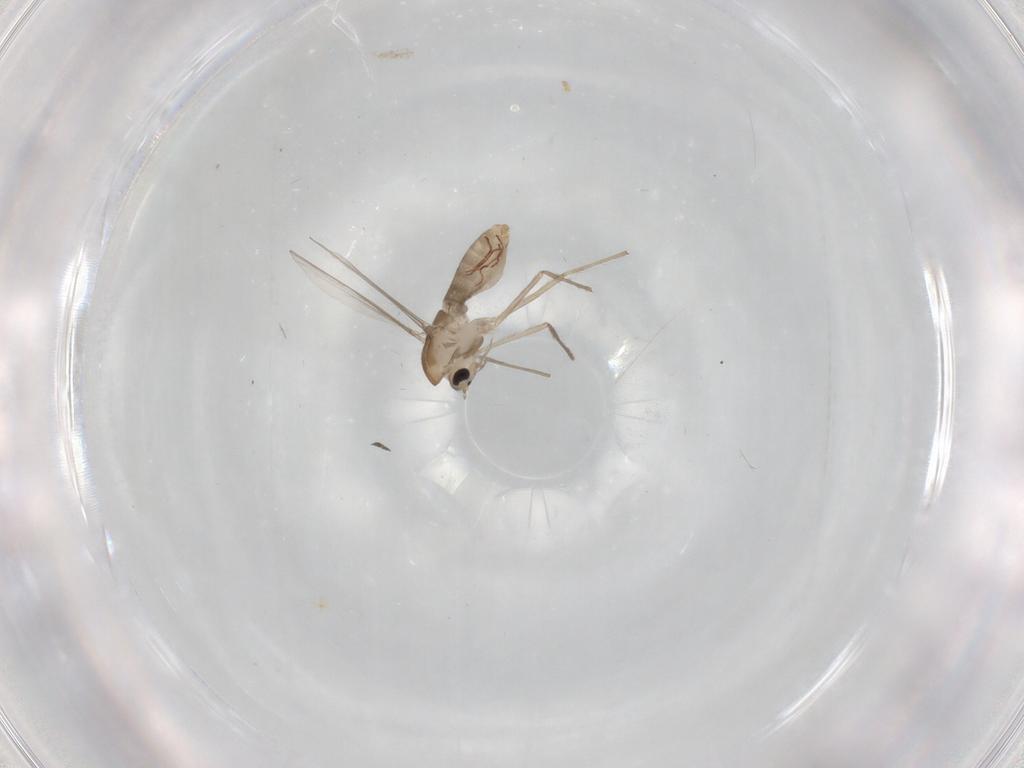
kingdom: Animalia
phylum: Arthropoda
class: Insecta
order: Diptera
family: Chironomidae
